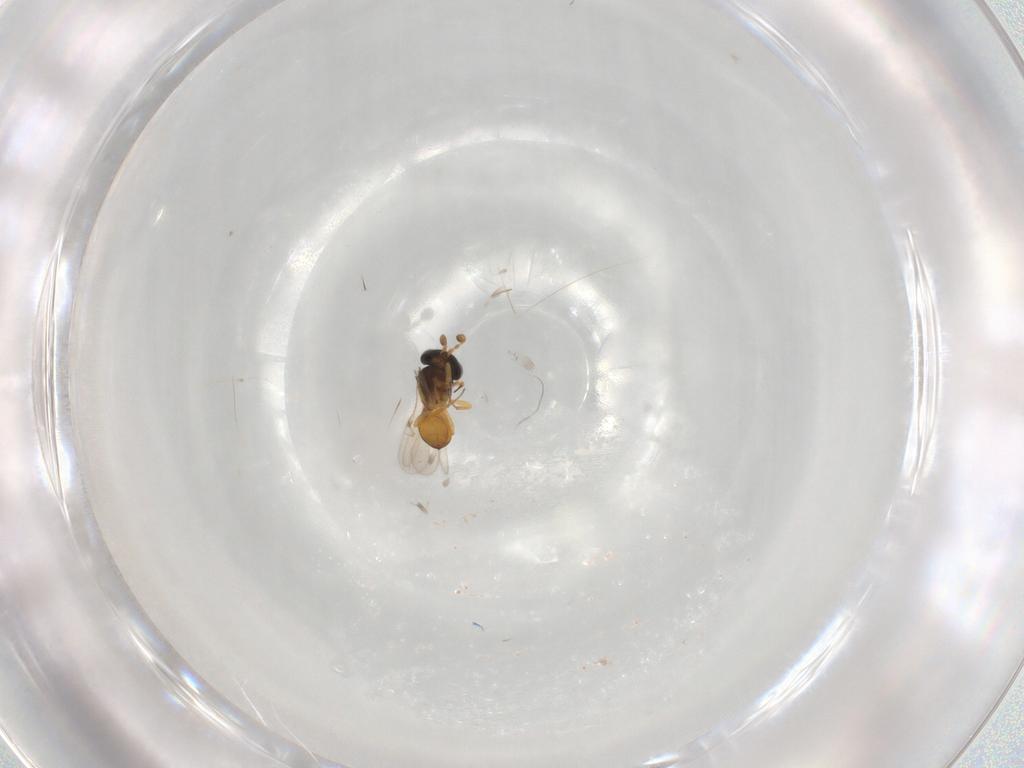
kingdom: Animalia
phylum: Arthropoda
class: Insecta
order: Hymenoptera
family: Scelionidae
